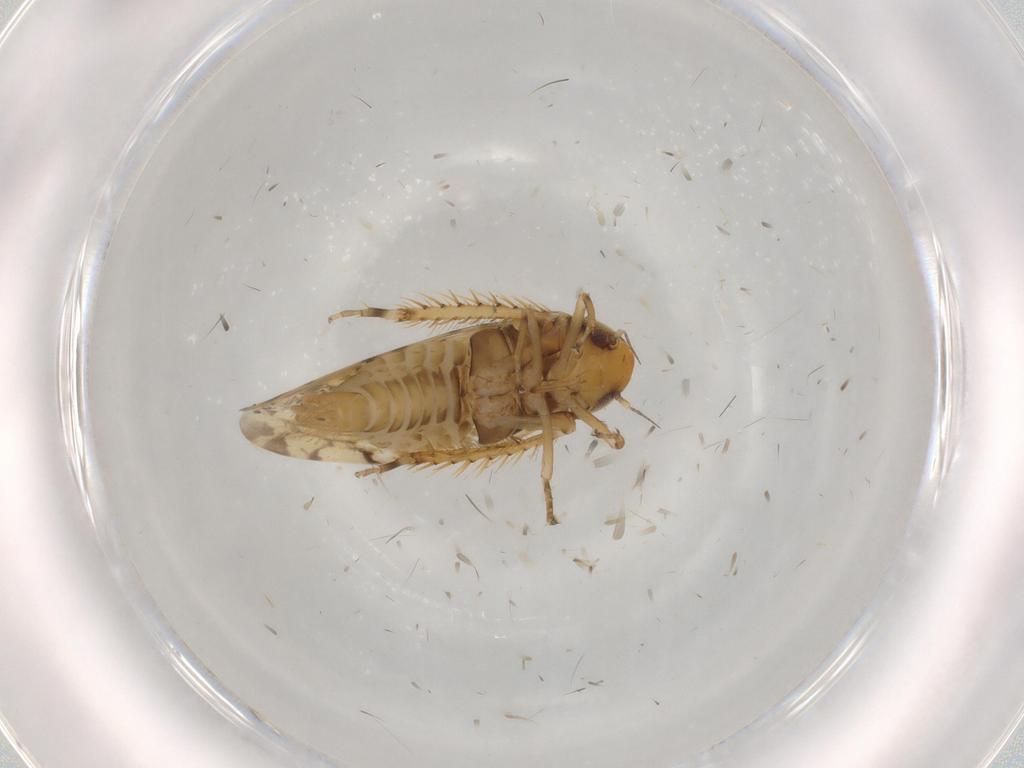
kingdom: Animalia
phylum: Arthropoda
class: Insecta
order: Hemiptera
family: Cicadellidae
